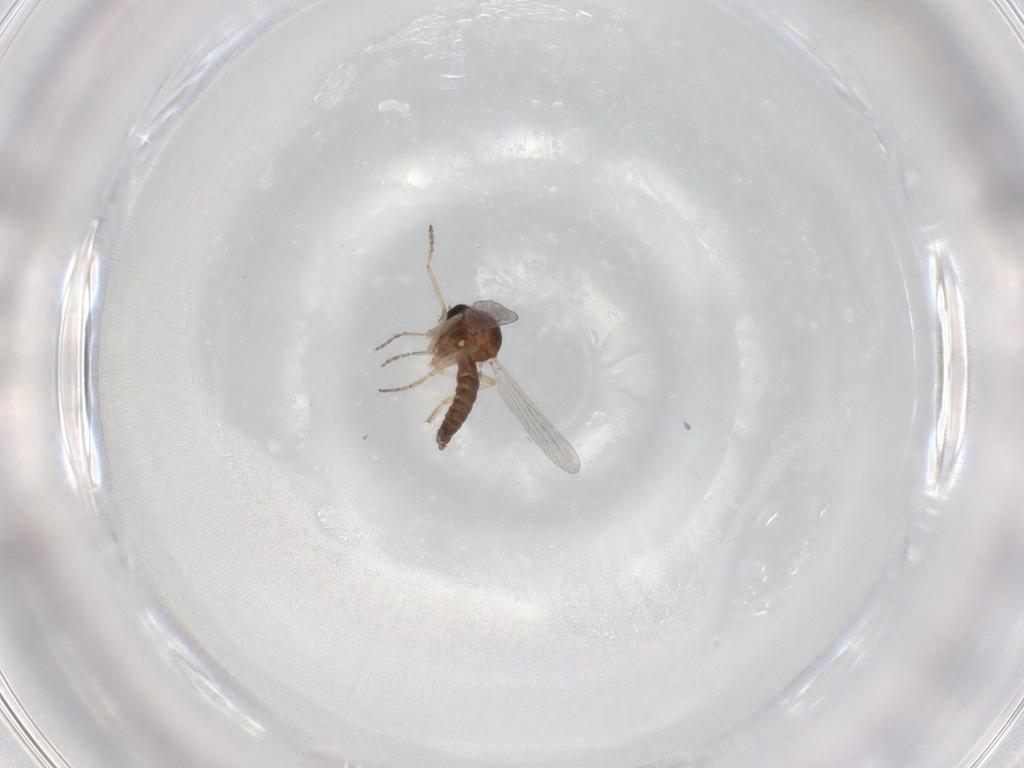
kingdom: Animalia
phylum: Arthropoda
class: Insecta
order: Diptera
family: Ceratopogonidae
